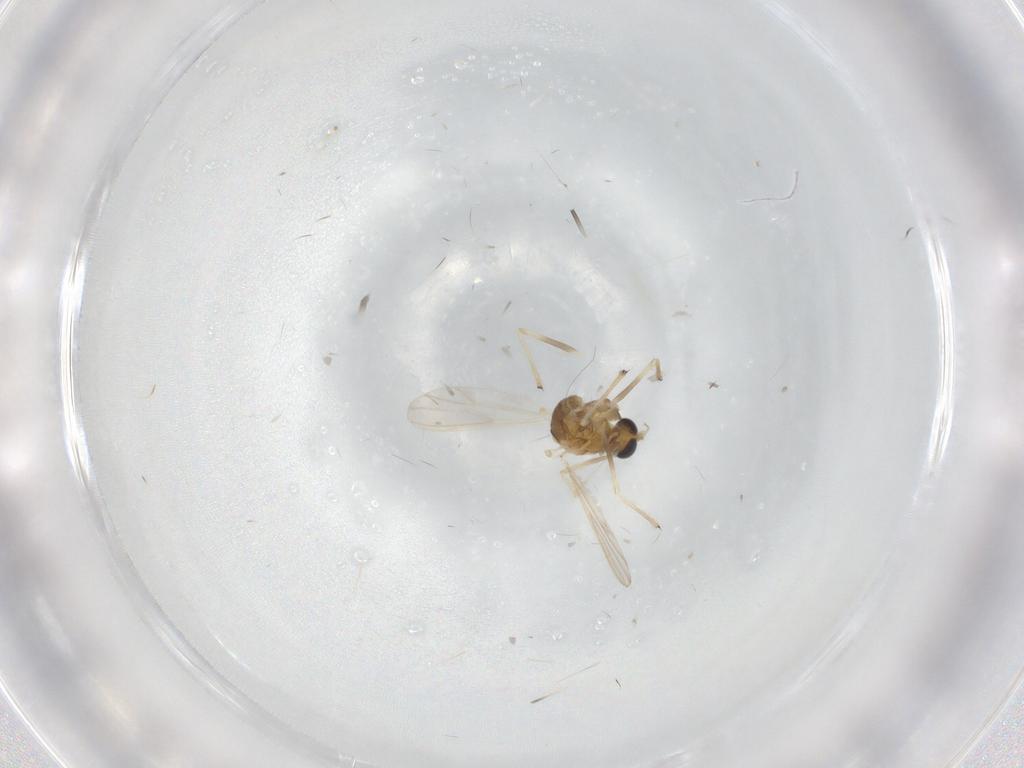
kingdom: Animalia
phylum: Arthropoda
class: Insecta
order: Diptera
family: Chironomidae
